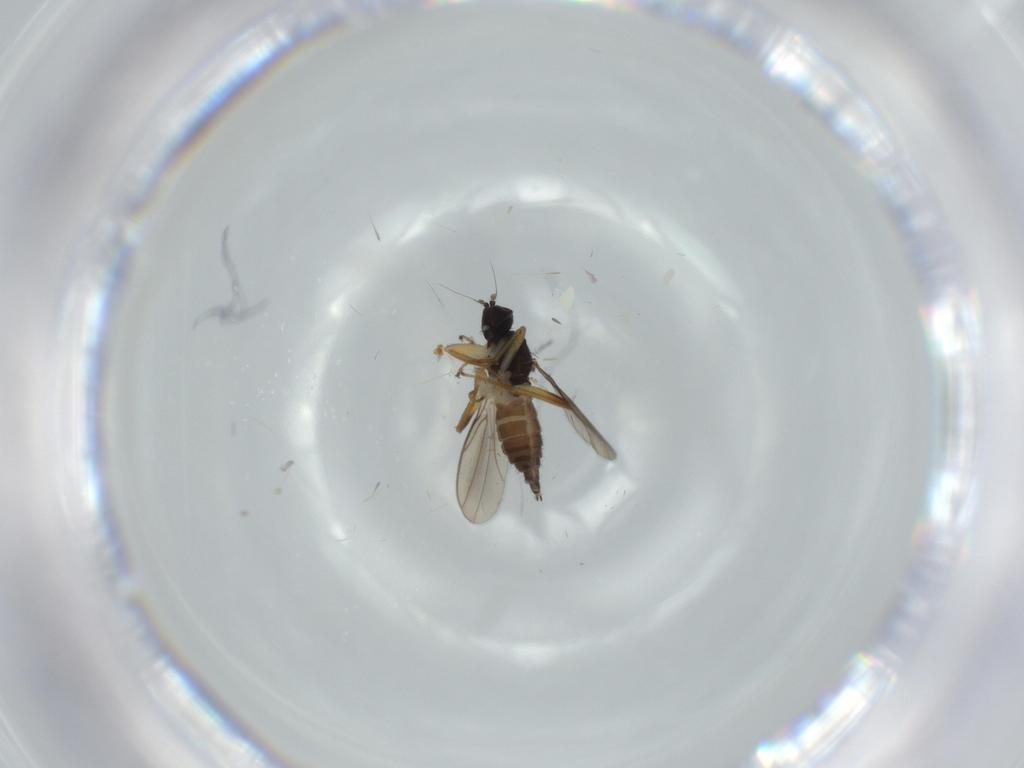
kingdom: Animalia
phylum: Arthropoda
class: Insecta
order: Diptera
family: Hybotidae
